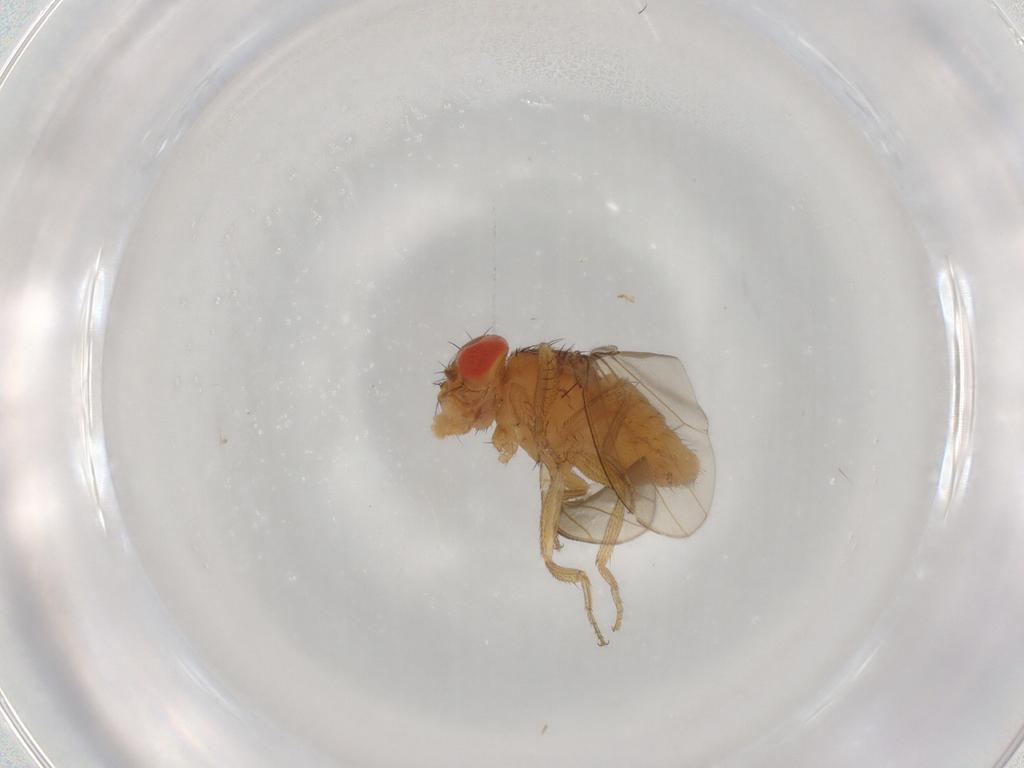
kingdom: Animalia
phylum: Arthropoda
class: Insecta
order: Diptera
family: Drosophilidae
